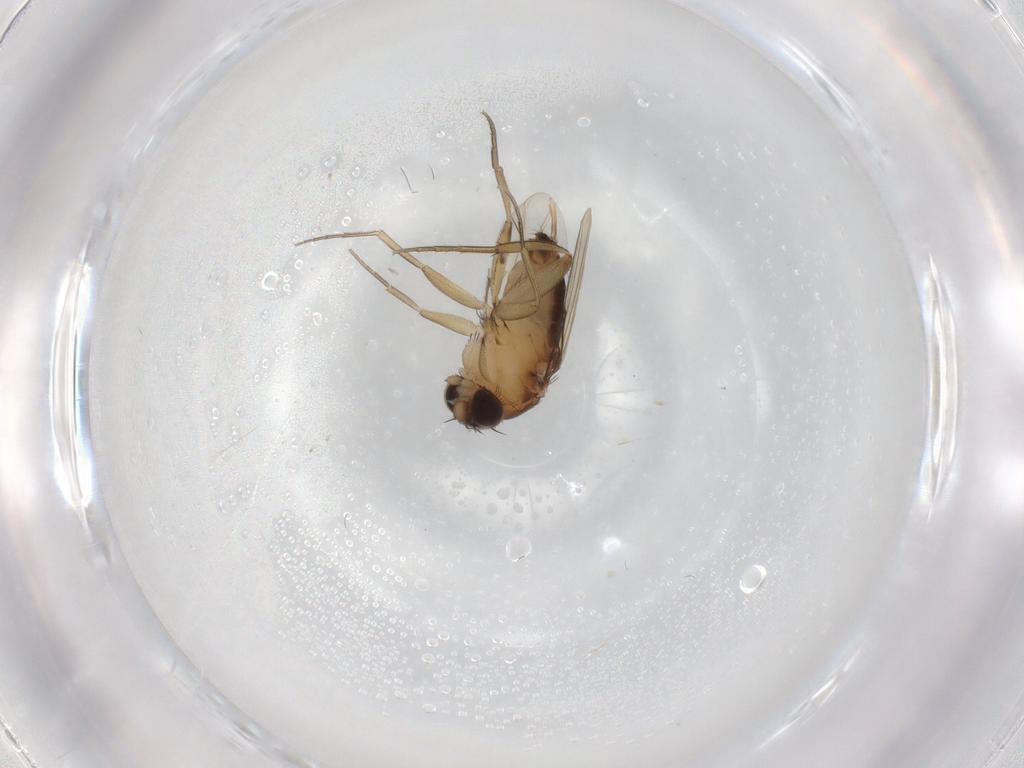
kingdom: Animalia
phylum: Arthropoda
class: Insecta
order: Diptera
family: Phoridae
